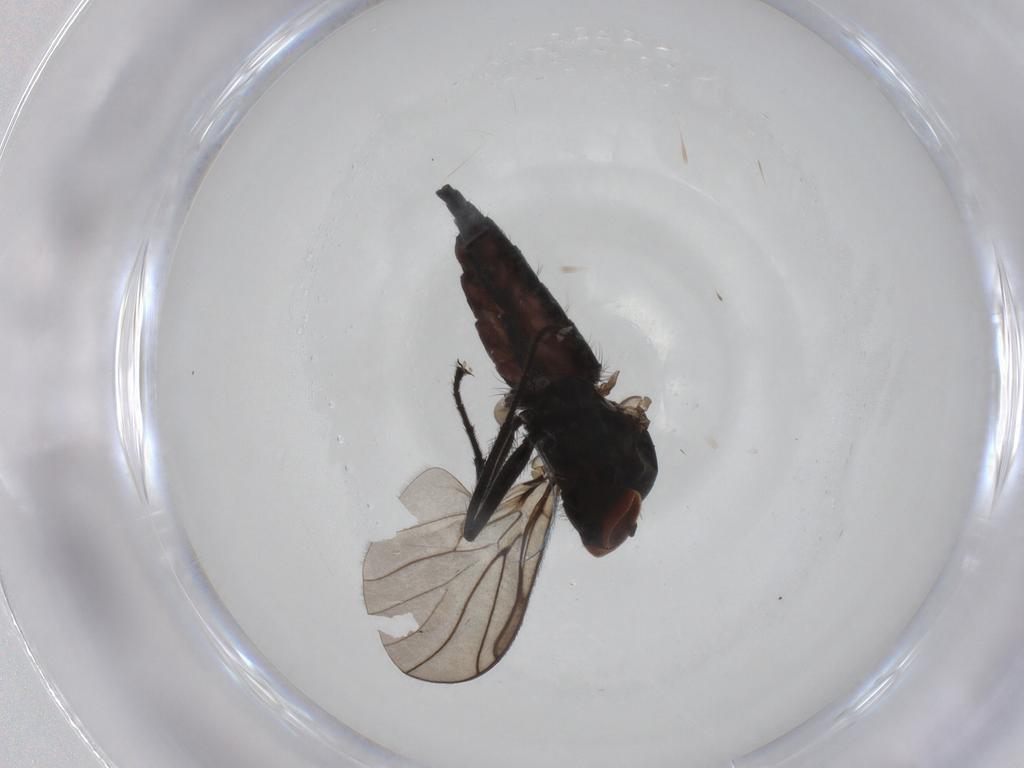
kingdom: Animalia
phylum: Arthropoda
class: Insecta
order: Diptera
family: Hybotidae
